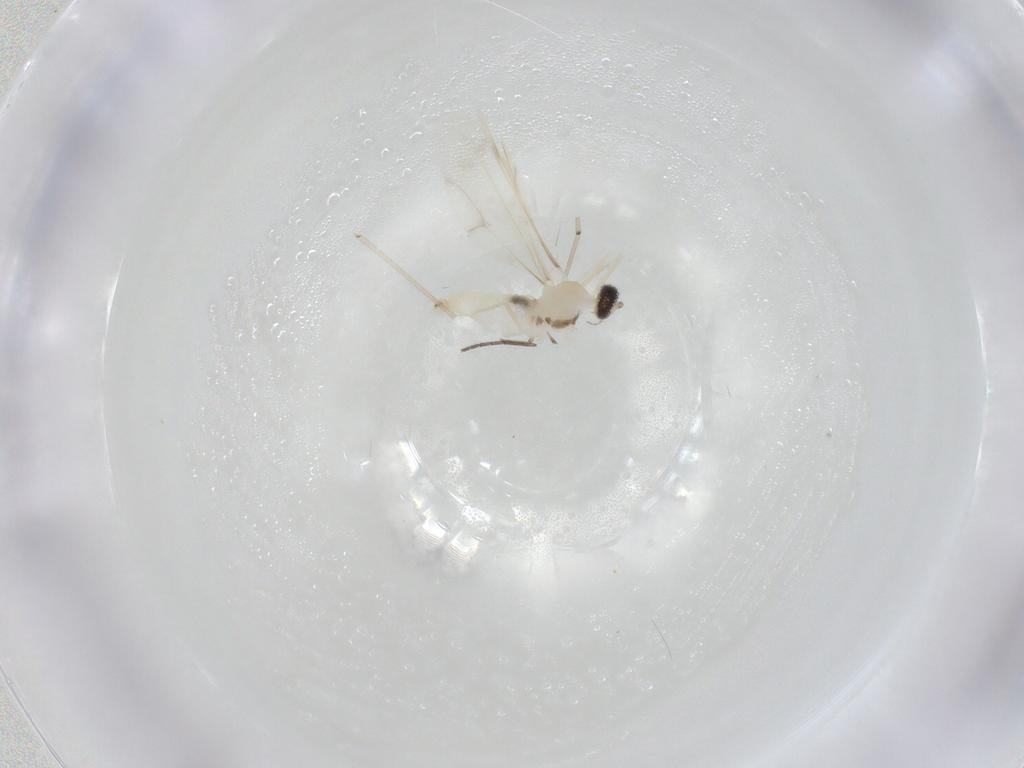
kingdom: Animalia
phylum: Arthropoda
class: Insecta
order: Diptera
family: Cecidomyiidae
